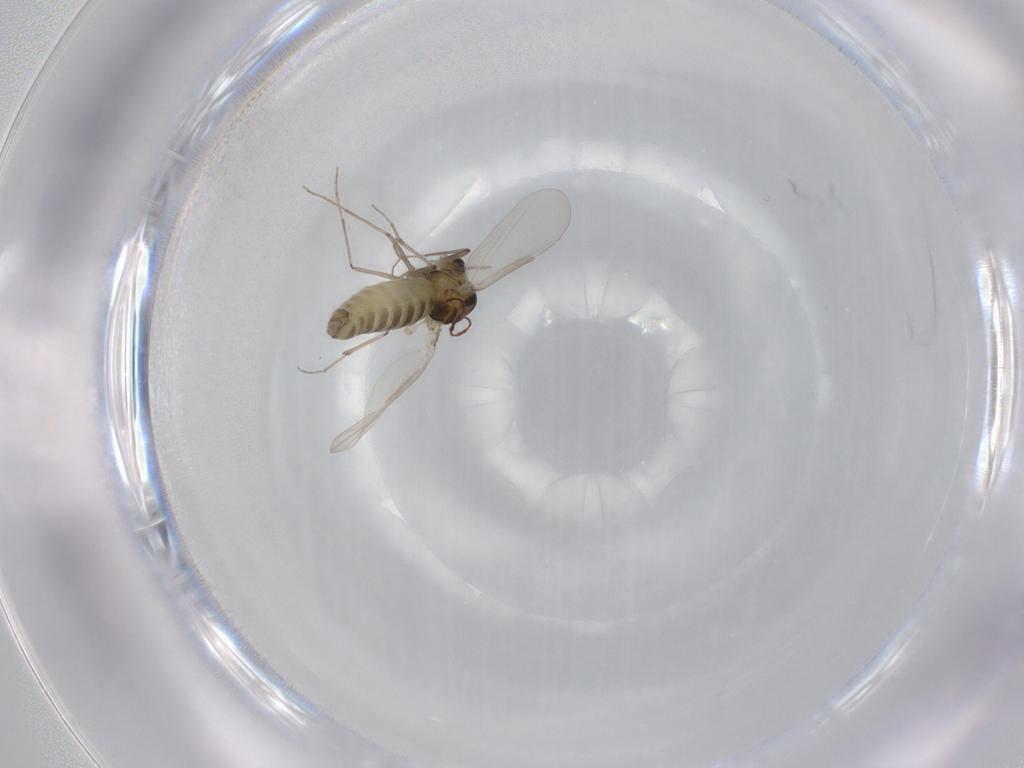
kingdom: Animalia
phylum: Arthropoda
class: Insecta
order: Diptera
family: Chironomidae
